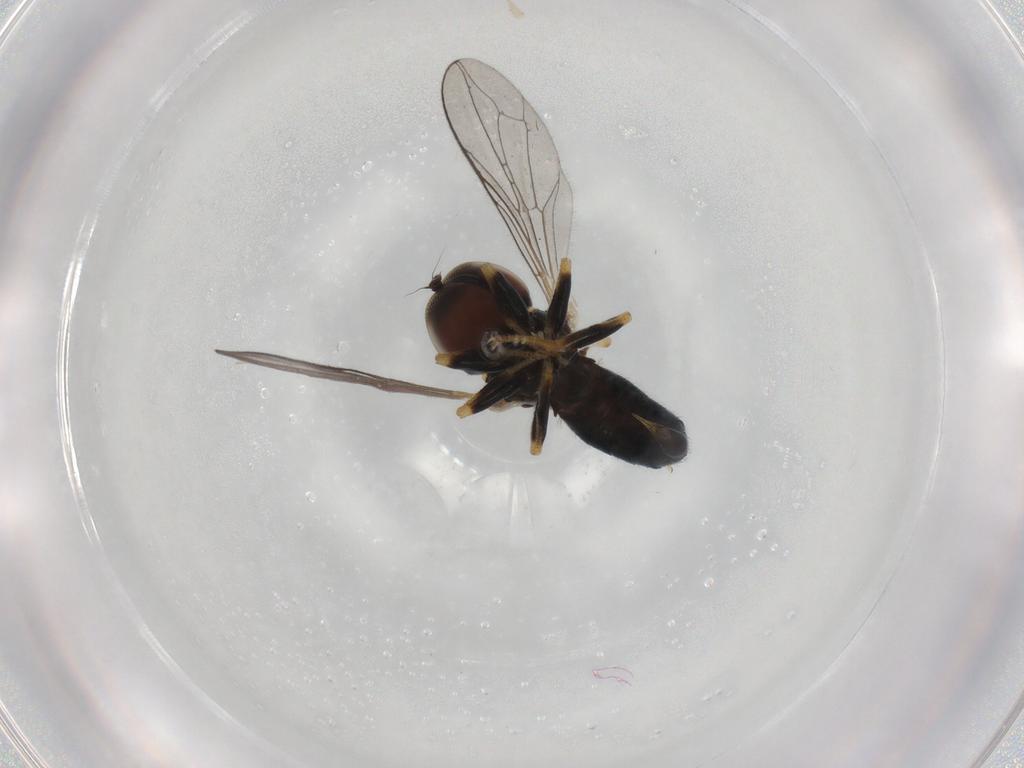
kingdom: Animalia
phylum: Arthropoda
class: Insecta
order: Diptera
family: Pipunculidae
